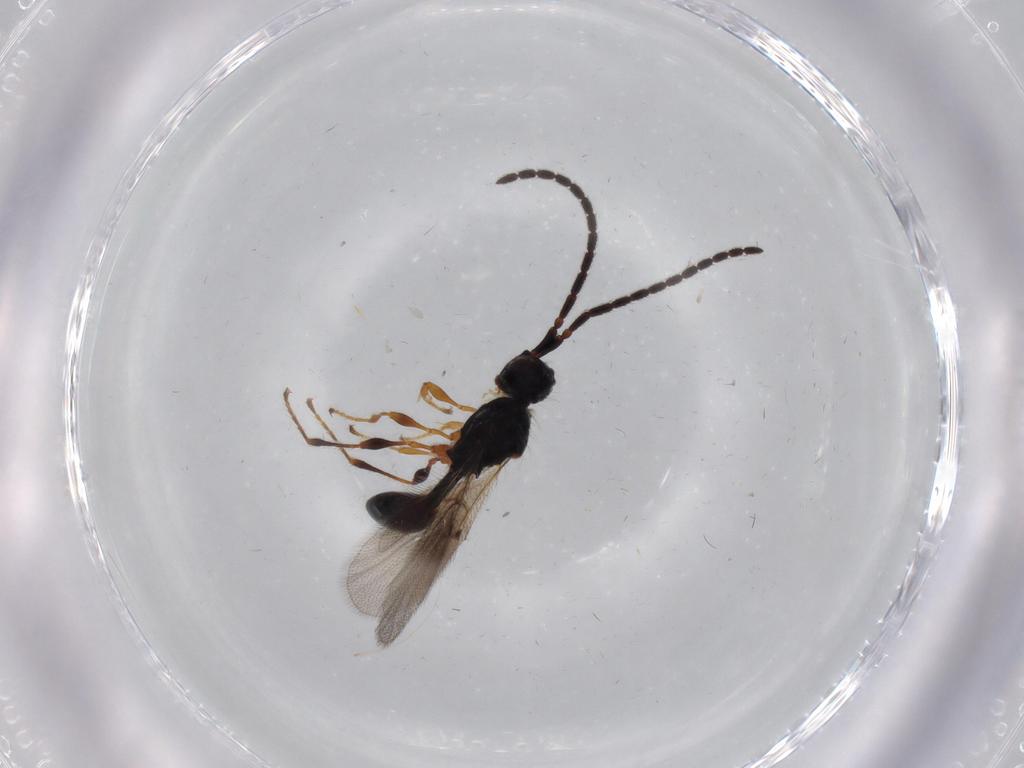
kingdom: Animalia
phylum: Arthropoda
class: Insecta
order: Hymenoptera
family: Diapriidae
